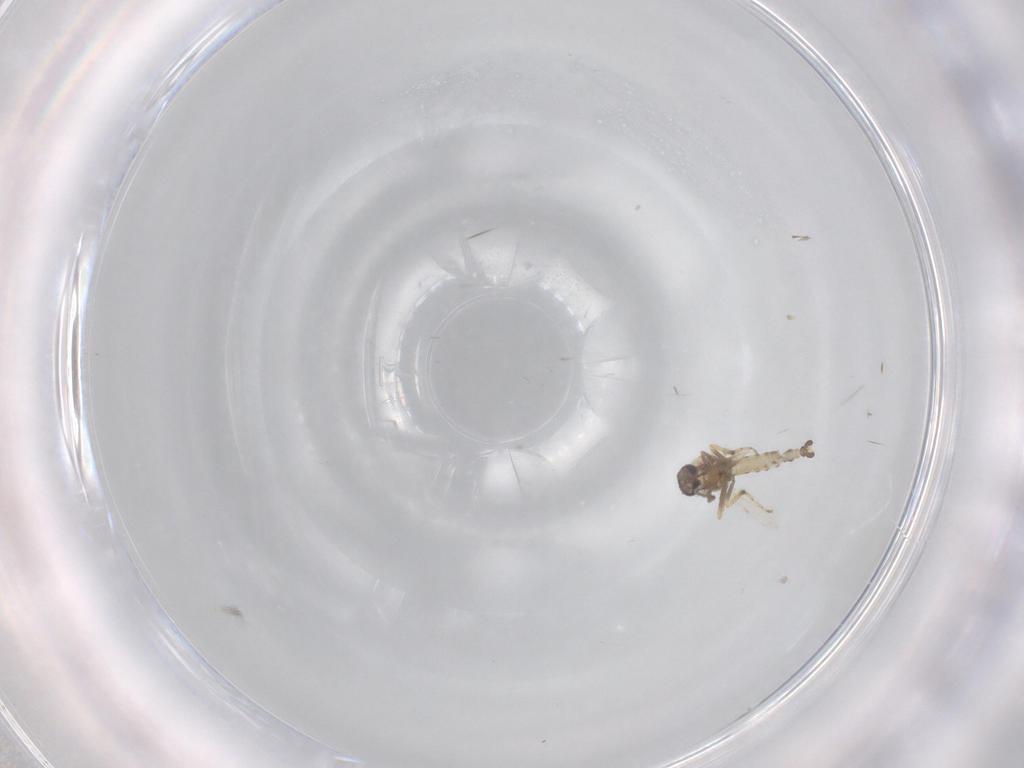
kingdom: Animalia
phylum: Arthropoda
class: Insecta
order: Diptera
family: Ceratopogonidae
